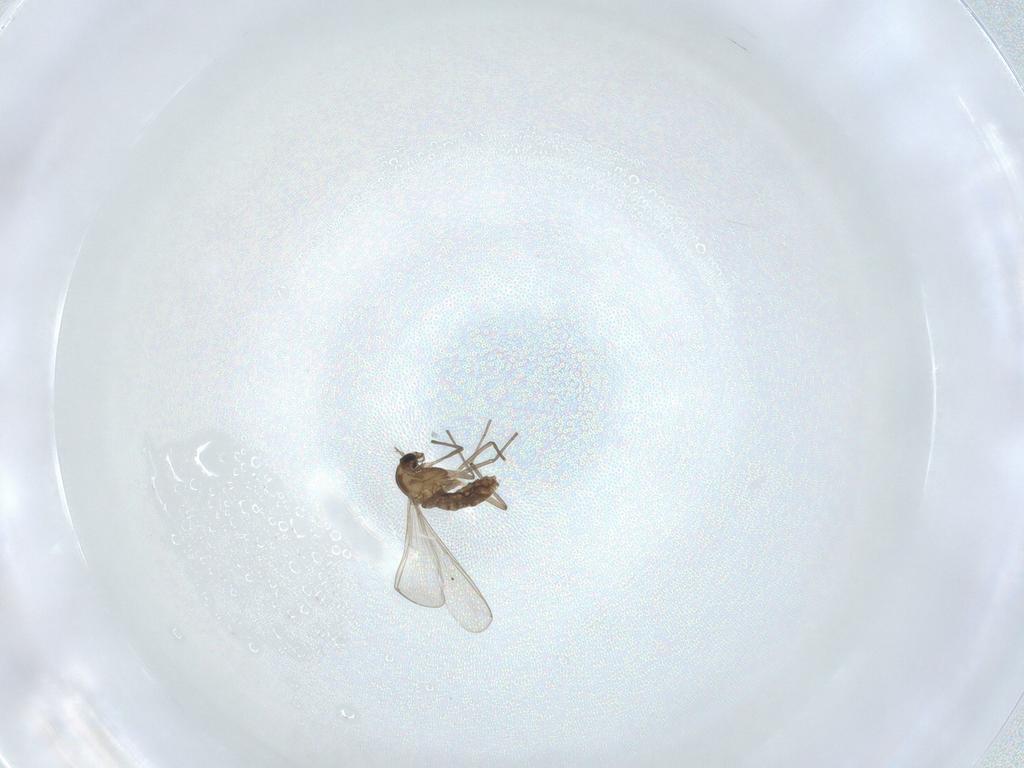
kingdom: Animalia
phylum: Arthropoda
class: Insecta
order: Diptera
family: Chironomidae
